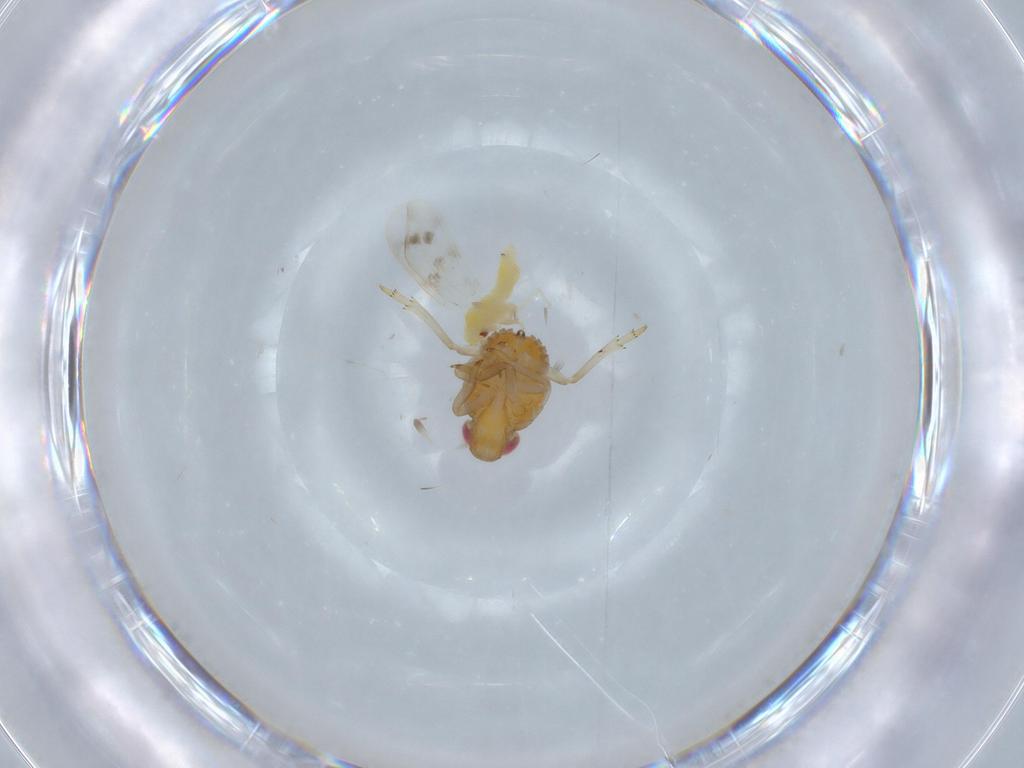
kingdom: Animalia
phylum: Arthropoda
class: Insecta
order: Hemiptera
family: Fulgoroidea_incertae_sedis
